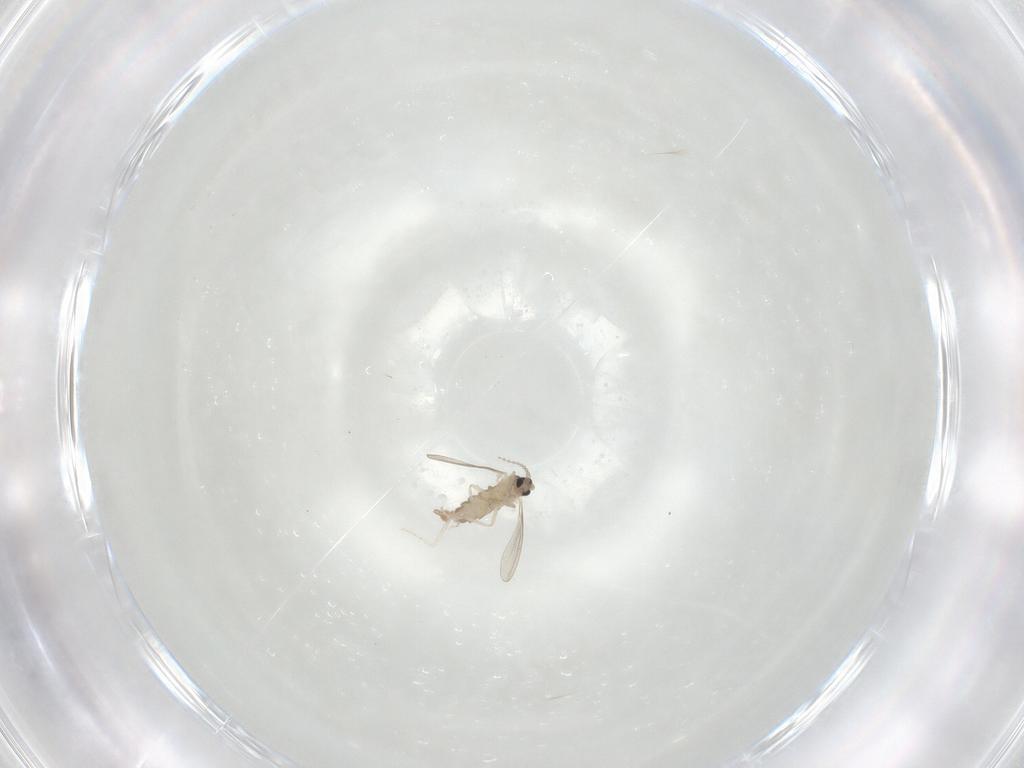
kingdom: Animalia
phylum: Arthropoda
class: Insecta
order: Diptera
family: Cecidomyiidae
